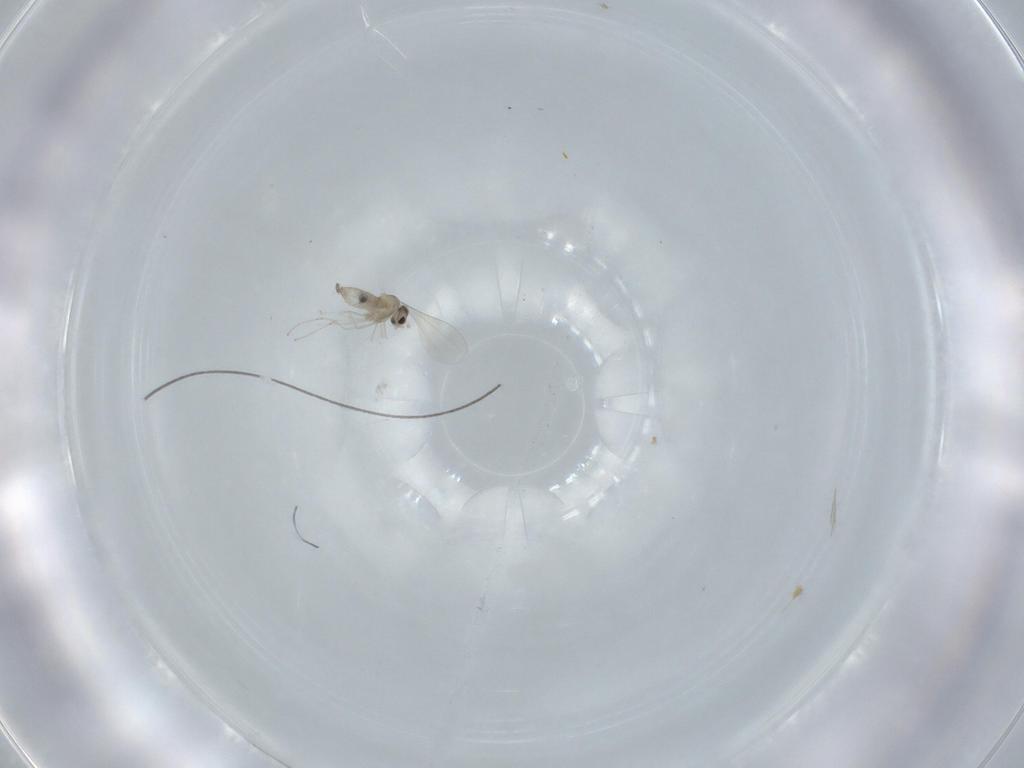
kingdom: Animalia
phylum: Arthropoda
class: Insecta
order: Diptera
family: Cecidomyiidae
